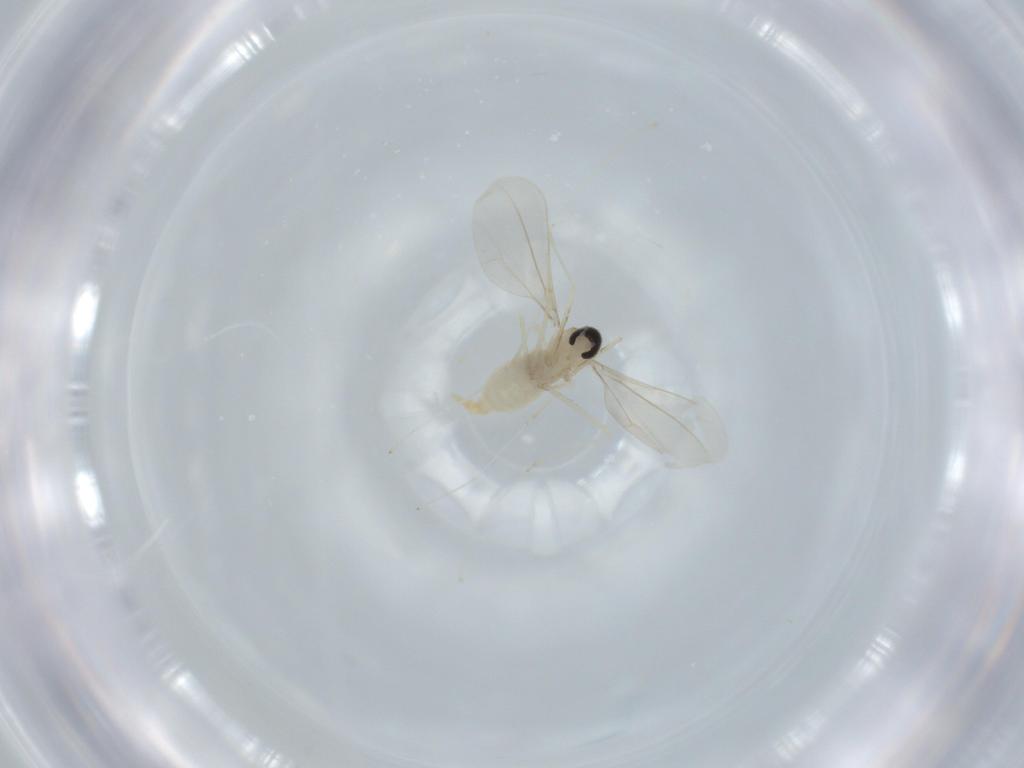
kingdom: Animalia
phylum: Arthropoda
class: Insecta
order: Diptera
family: Cecidomyiidae
